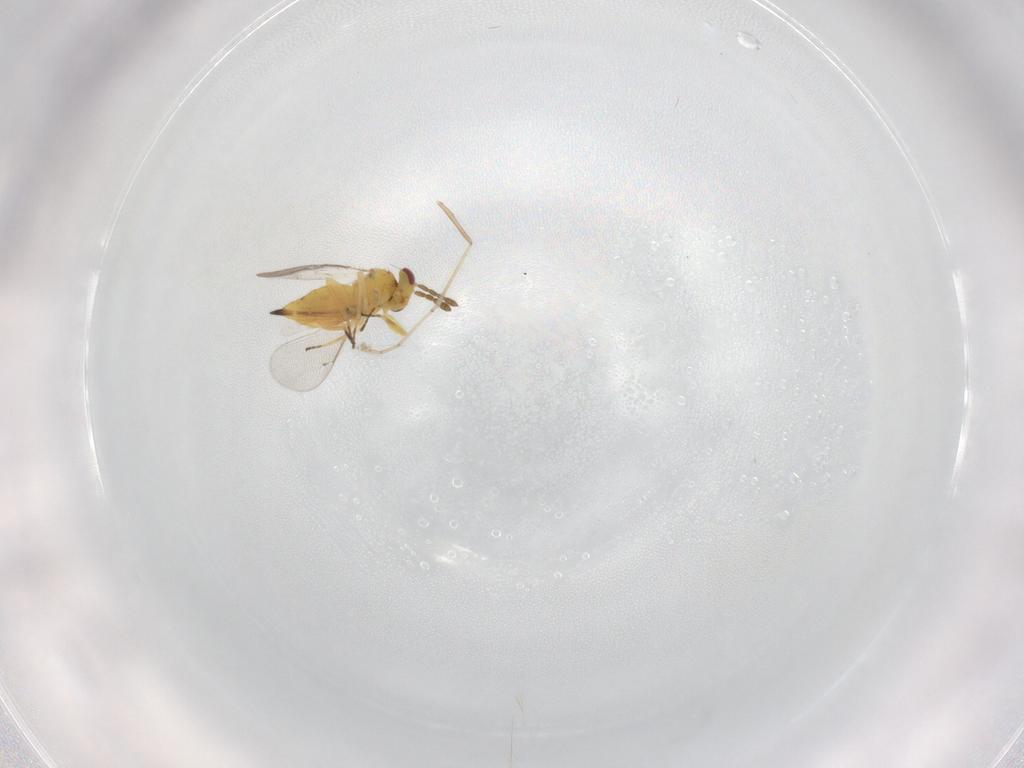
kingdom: Animalia
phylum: Arthropoda
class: Insecta
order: Hymenoptera
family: Eulophidae
